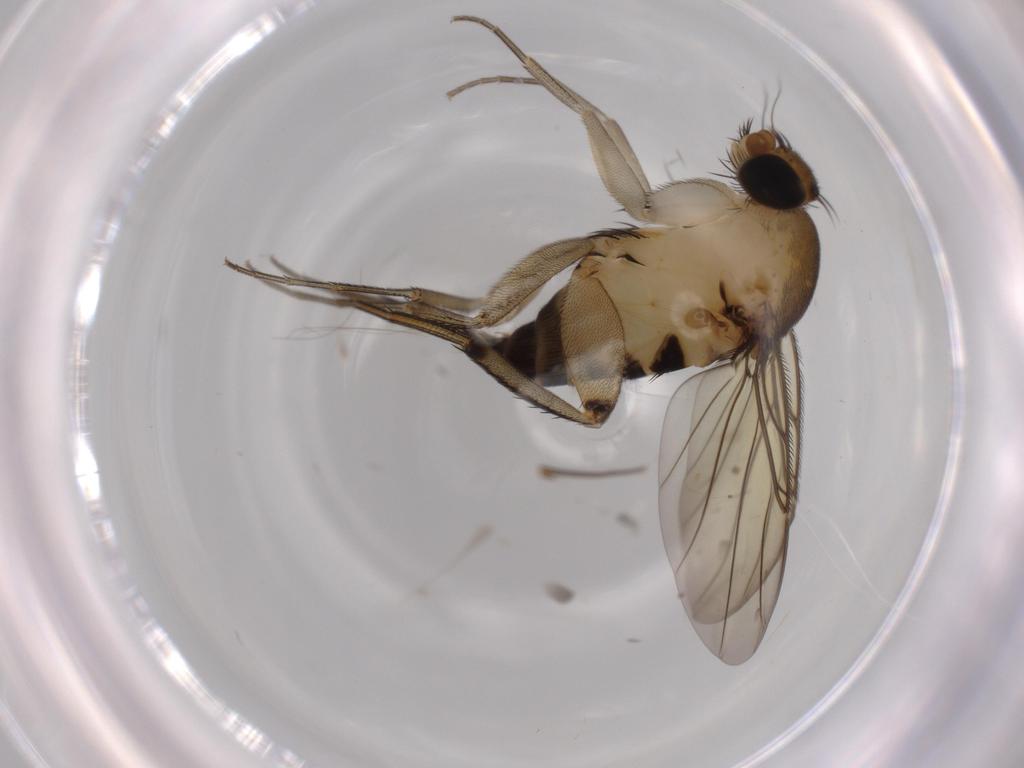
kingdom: Animalia
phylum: Arthropoda
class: Insecta
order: Diptera
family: Phoridae
